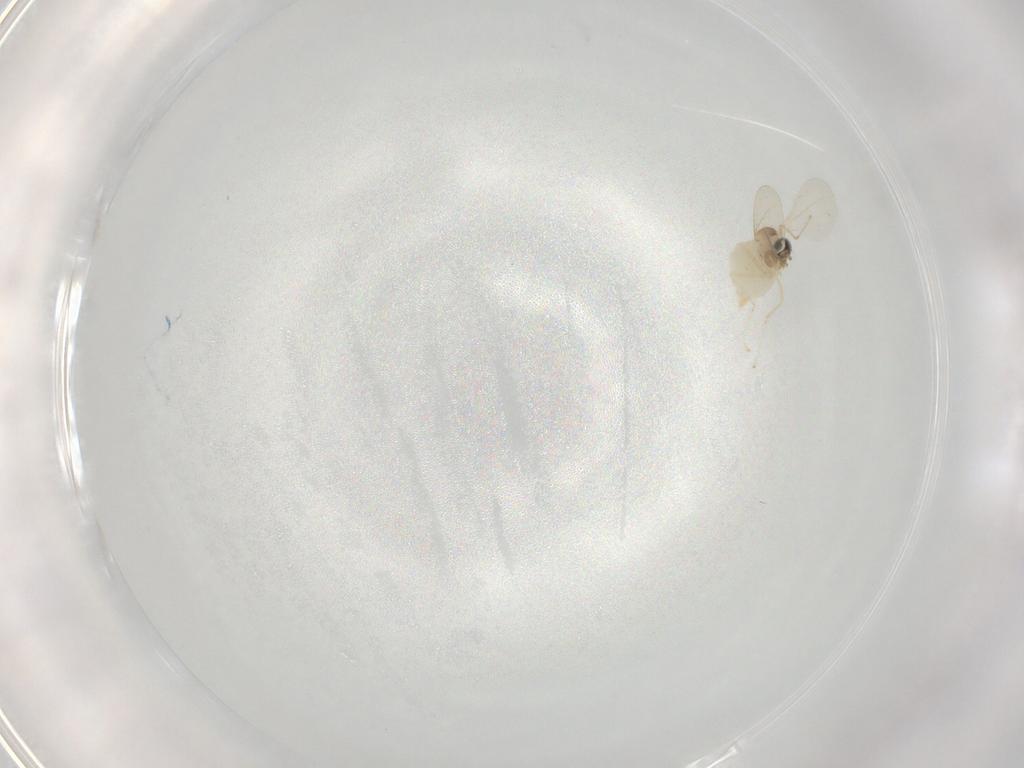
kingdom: Animalia
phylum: Arthropoda
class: Insecta
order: Diptera
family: Cecidomyiidae
